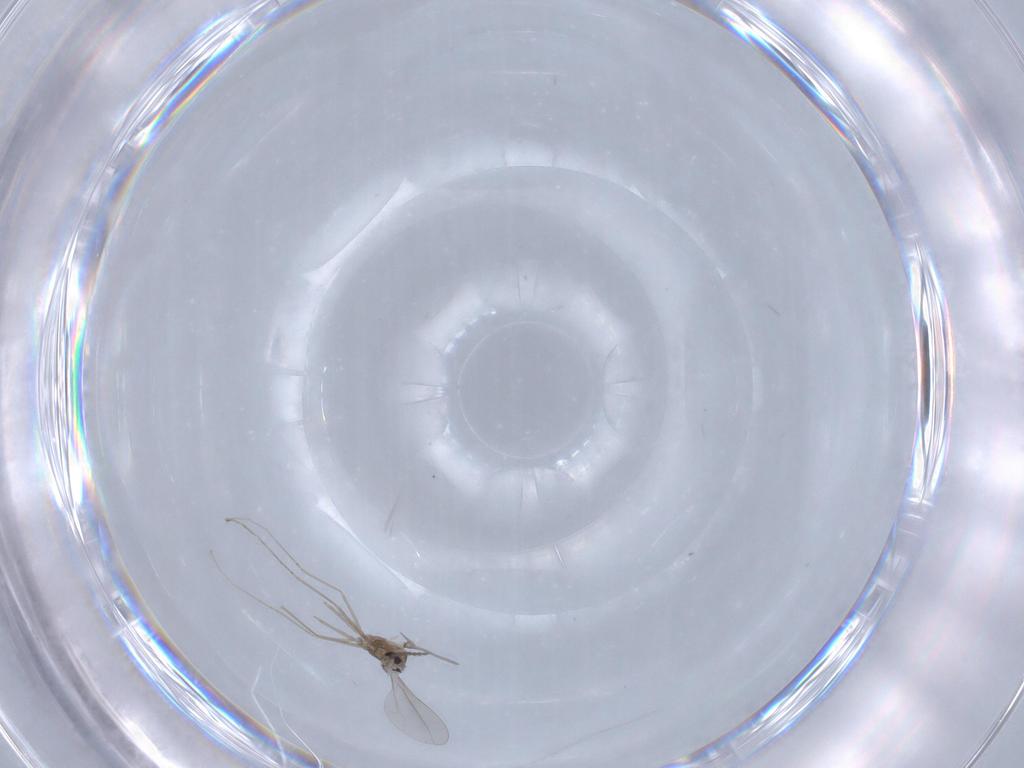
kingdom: Animalia
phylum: Arthropoda
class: Insecta
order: Diptera
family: Cecidomyiidae
